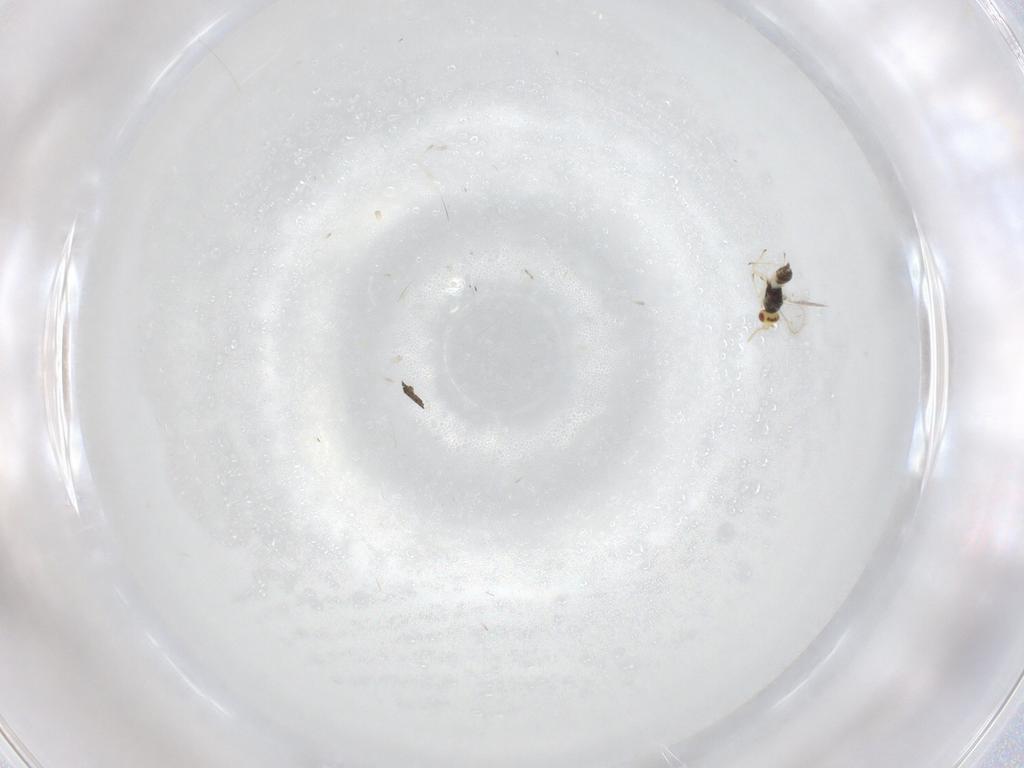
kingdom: Animalia
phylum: Arthropoda
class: Insecta
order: Hymenoptera
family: Eulophidae
